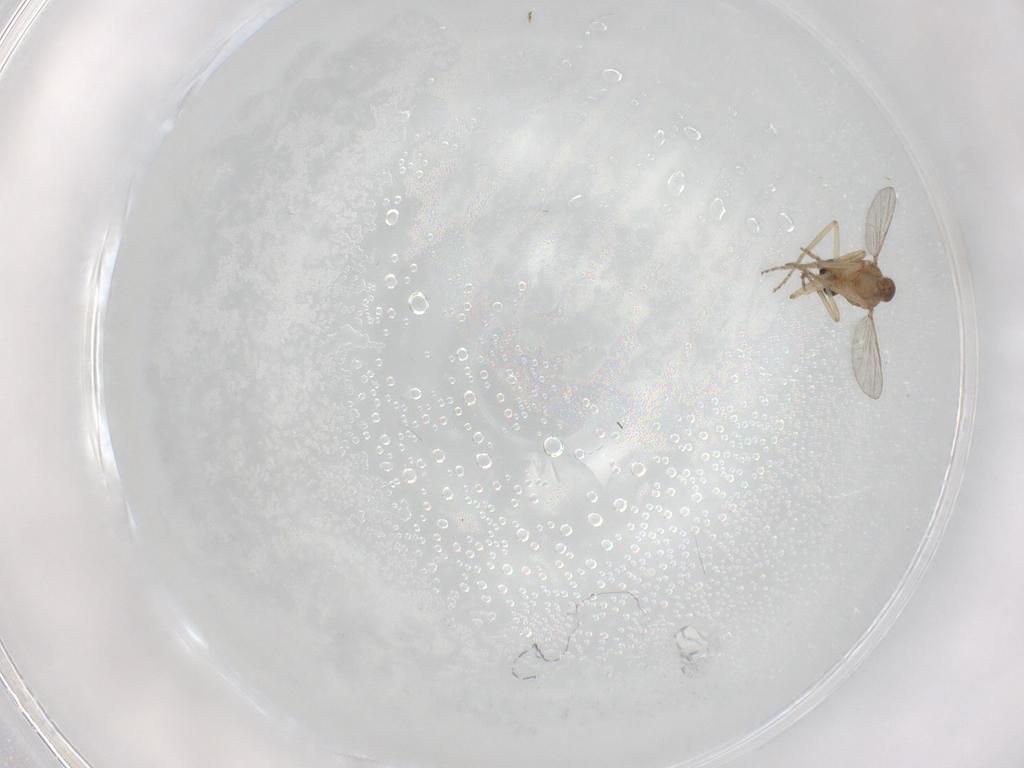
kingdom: Animalia
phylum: Arthropoda
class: Insecta
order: Diptera
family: Ceratopogonidae
